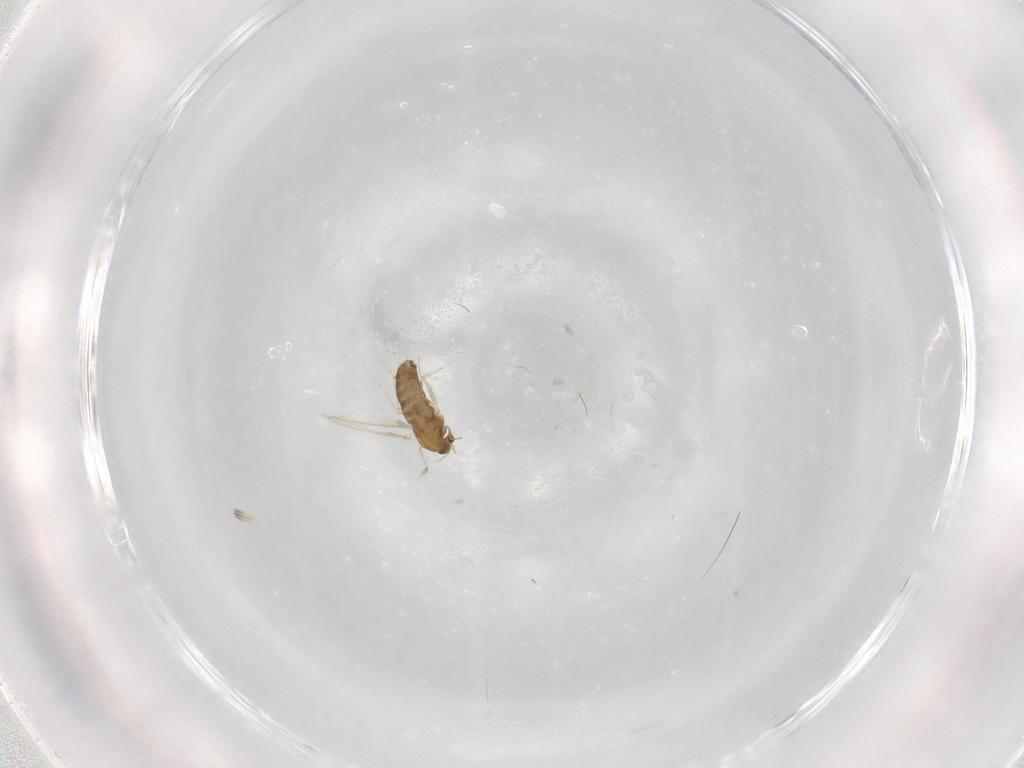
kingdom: Animalia
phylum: Arthropoda
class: Insecta
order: Diptera
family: Chironomidae
